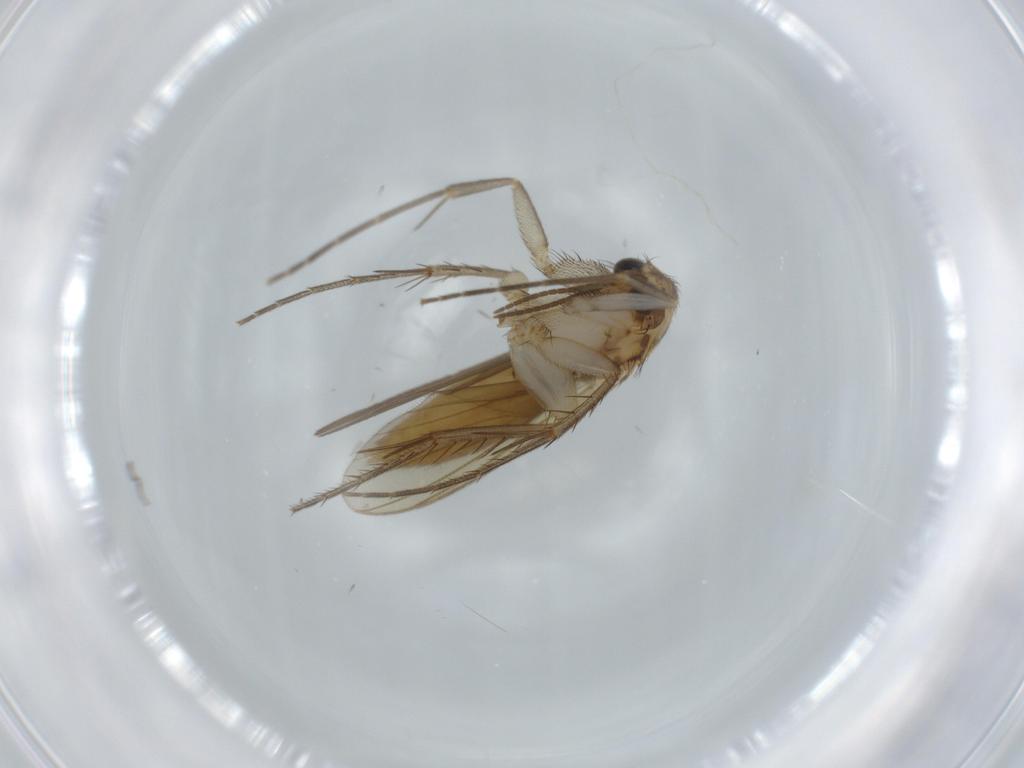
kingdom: Animalia
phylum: Arthropoda
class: Insecta
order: Diptera
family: Mycetophilidae
